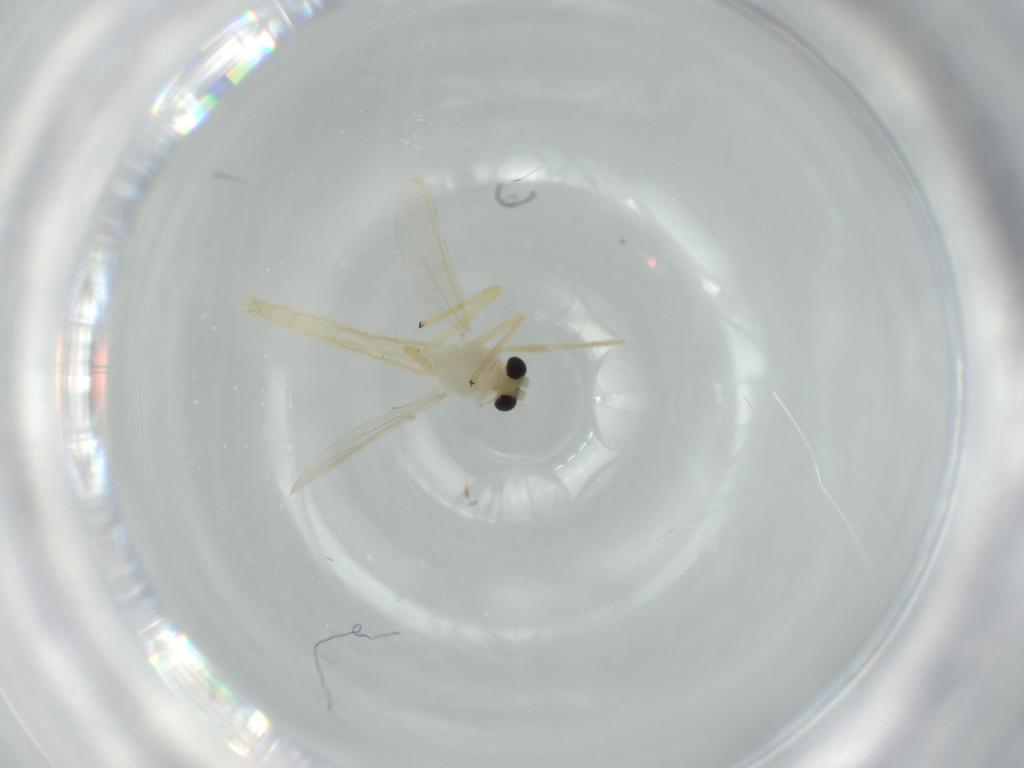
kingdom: Animalia
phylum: Arthropoda
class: Insecta
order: Diptera
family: Chironomidae
